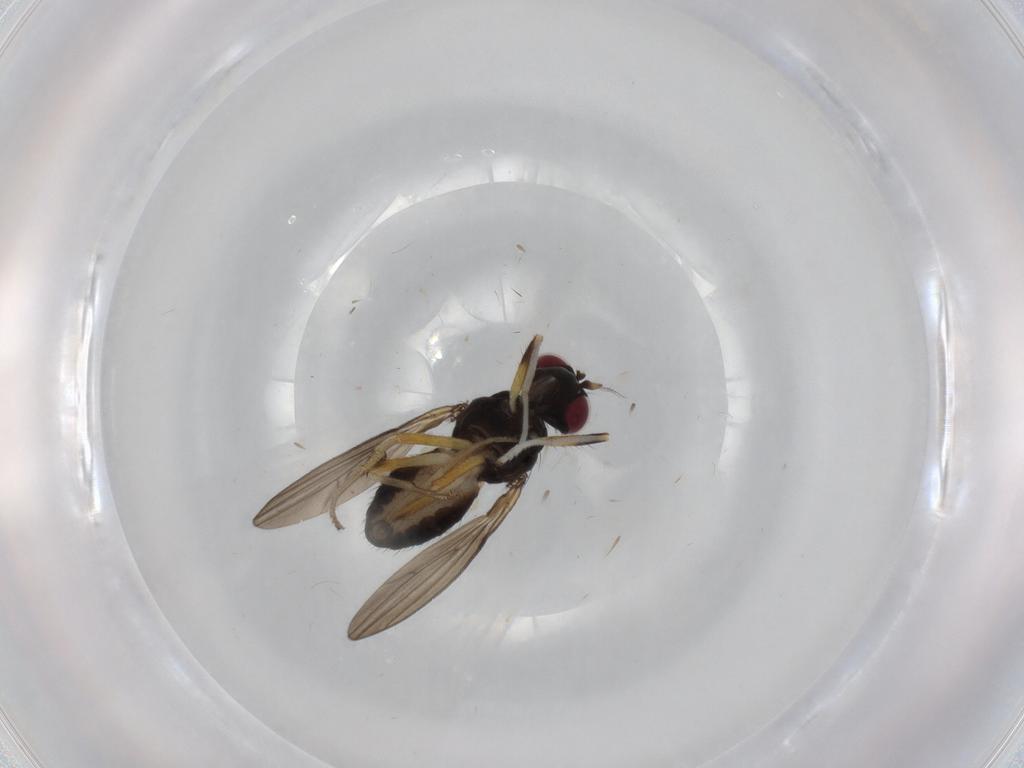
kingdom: Animalia
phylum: Arthropoda
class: Insecta
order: Diptera
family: Lauxaniidae
